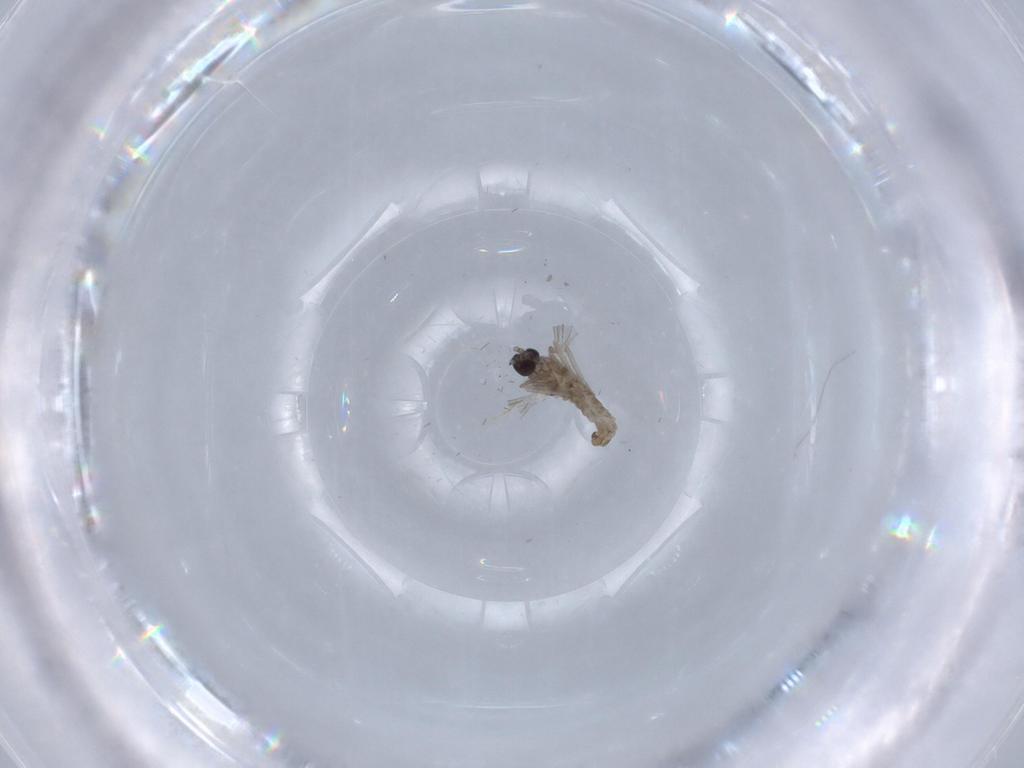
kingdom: Animalia
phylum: Arthropoda
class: Insecta
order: Diptera
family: Cecidomyiidae
